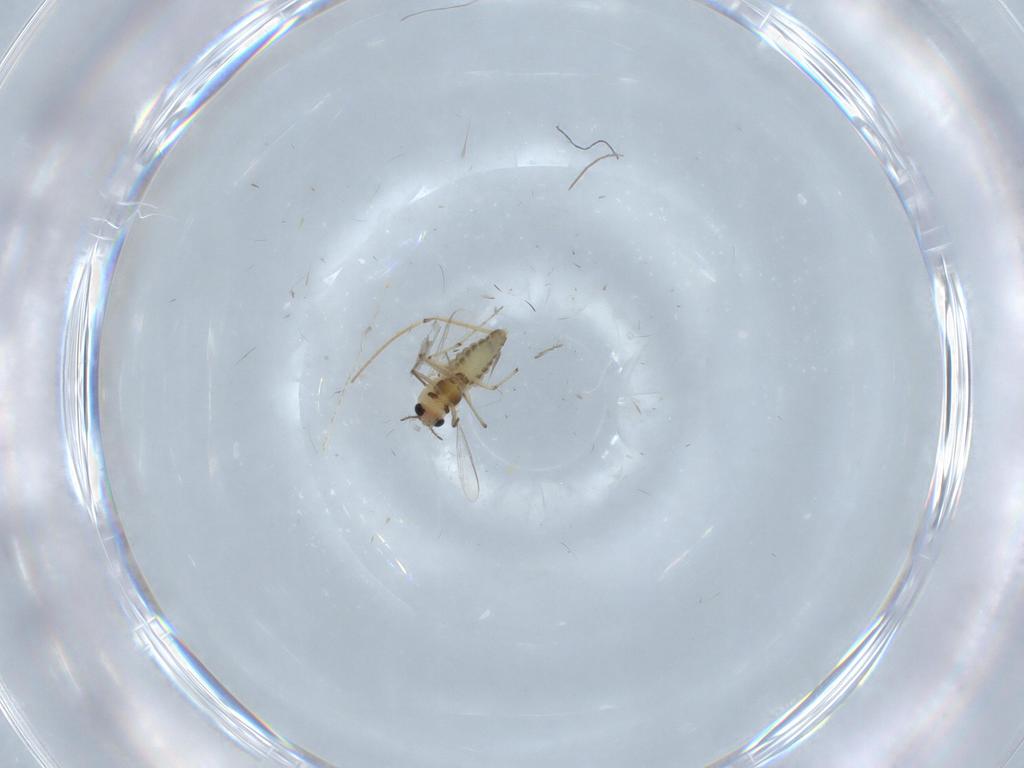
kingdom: Animalia
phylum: Arthropoda
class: Insecta
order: Diptera
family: Chironomidae
